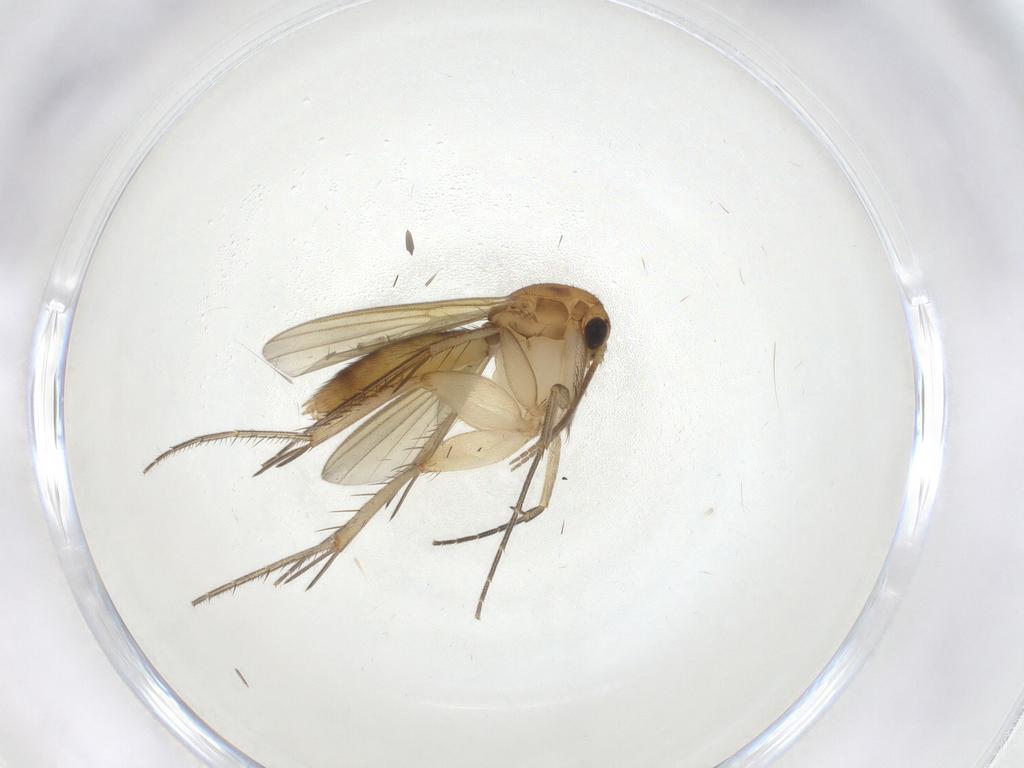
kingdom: Animalia
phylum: Arthropoda
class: Insecta
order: Diptera
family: Mycetophilidae
